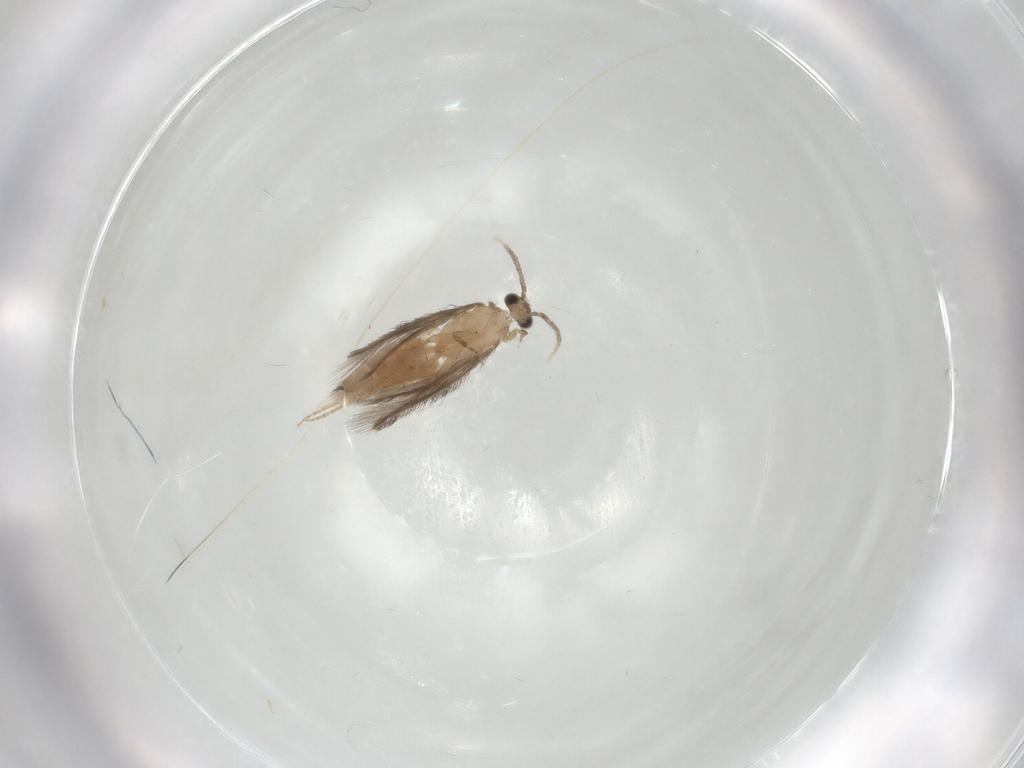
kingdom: Animalia
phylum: Arthropoda
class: Insecta
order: Trichoptera
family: Hydroptilidae
